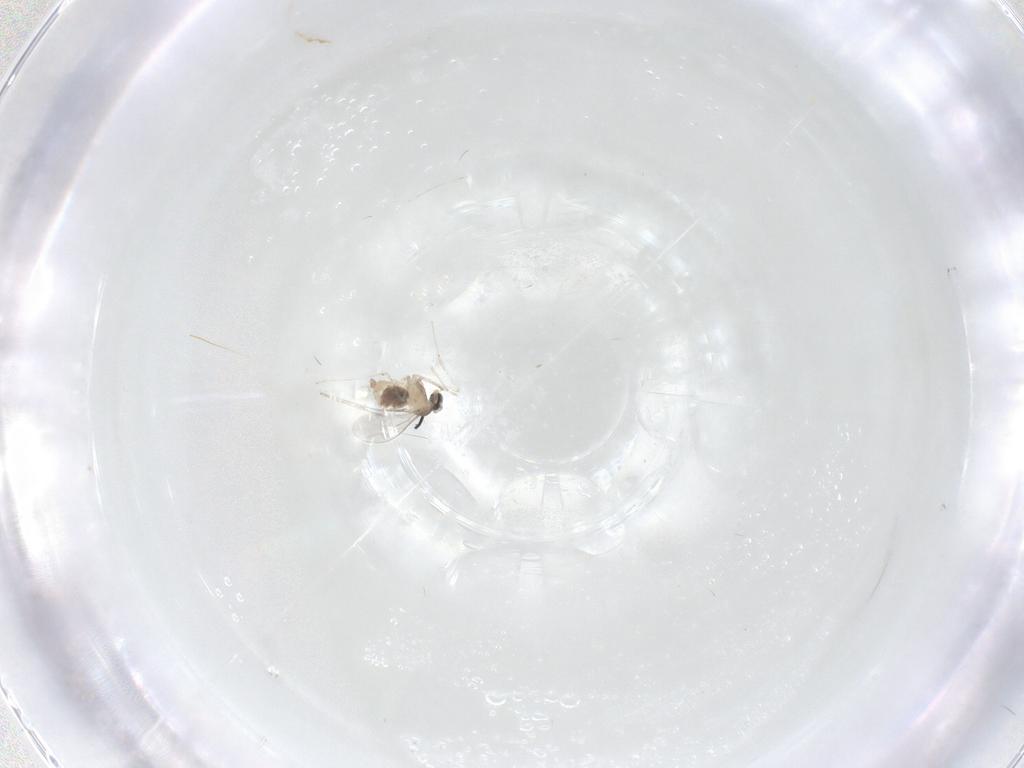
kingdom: Animalia
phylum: Arthropoda
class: Insecta
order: Diptera
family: Cecidomyiidae
